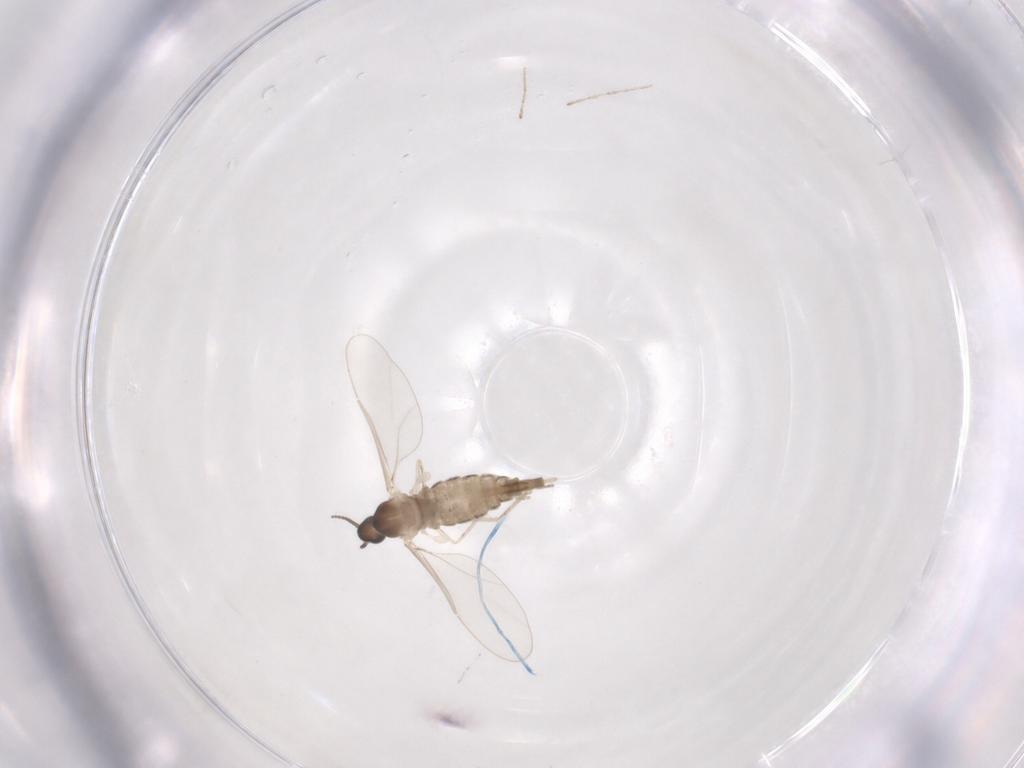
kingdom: Animalia
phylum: Arthropoda
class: Insecta
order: Diptera
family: Cecidomyiidae
